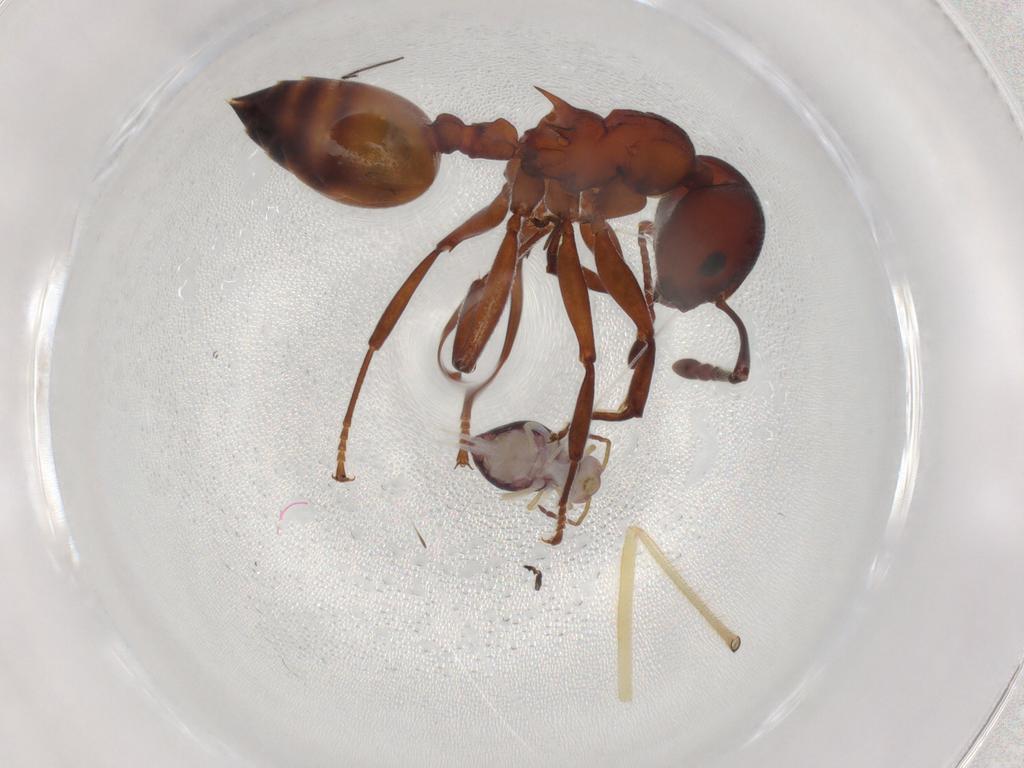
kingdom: Animalia
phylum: Arthropoda
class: Insecta
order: Hymenoptera
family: Formicidae
